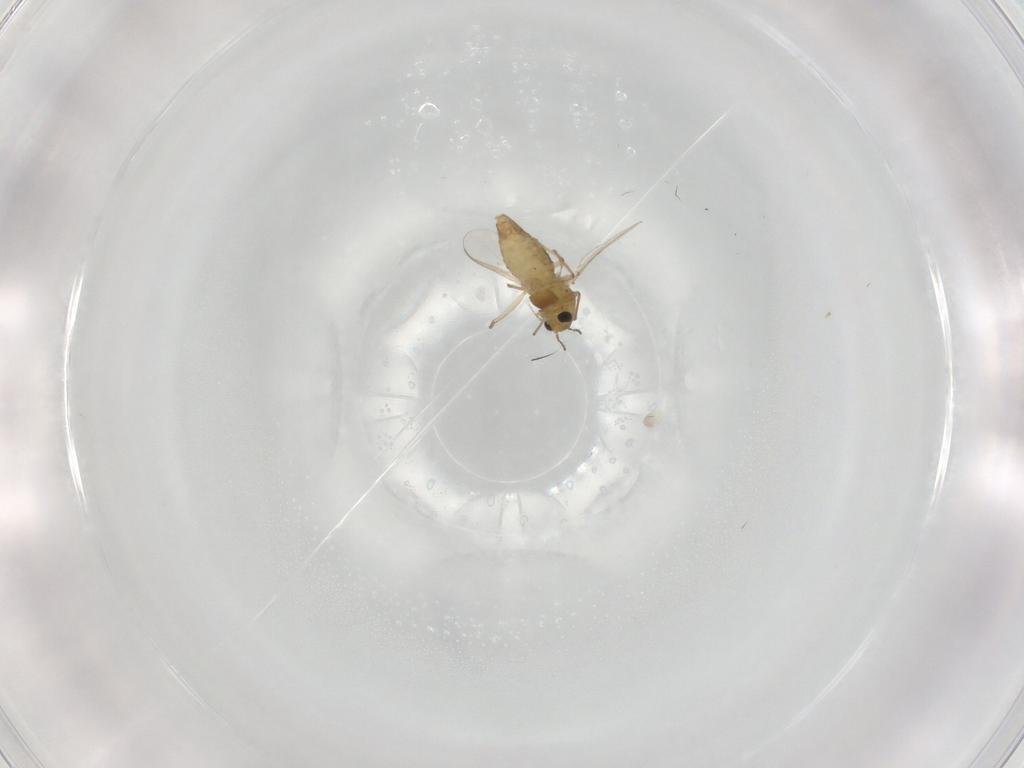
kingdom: Animalia
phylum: Arthropoda
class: Insecta
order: Diptera
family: Chironomidae
